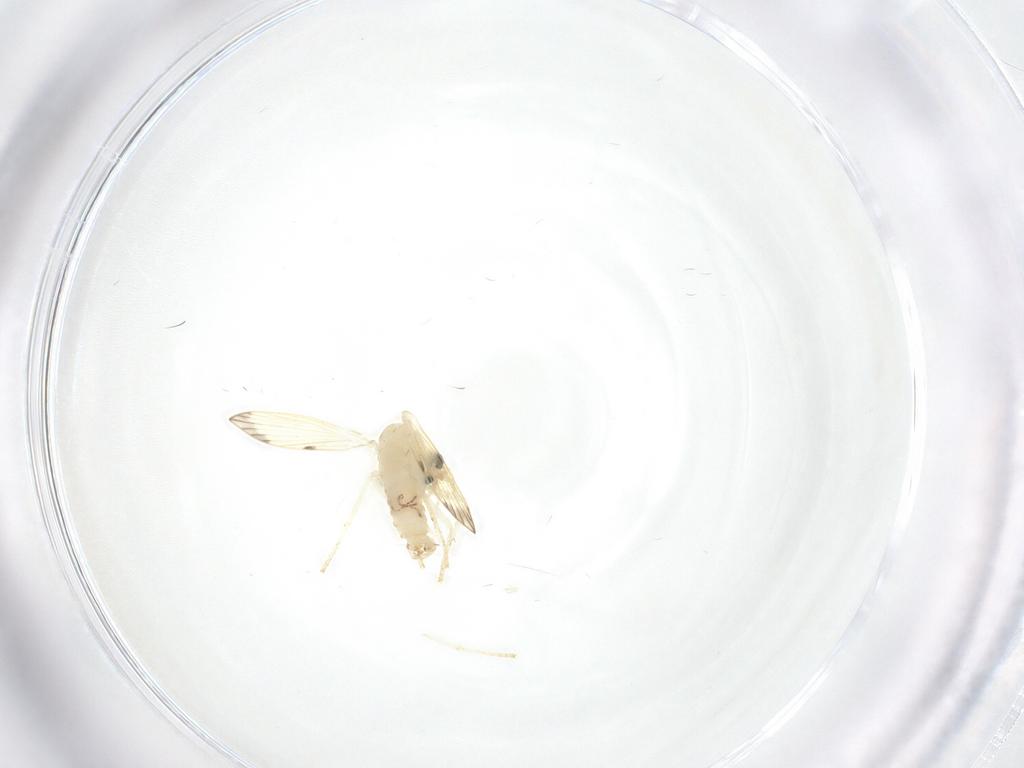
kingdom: Animalia
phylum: Arthropoda
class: Insecta
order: Diptera
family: Psychodidae
